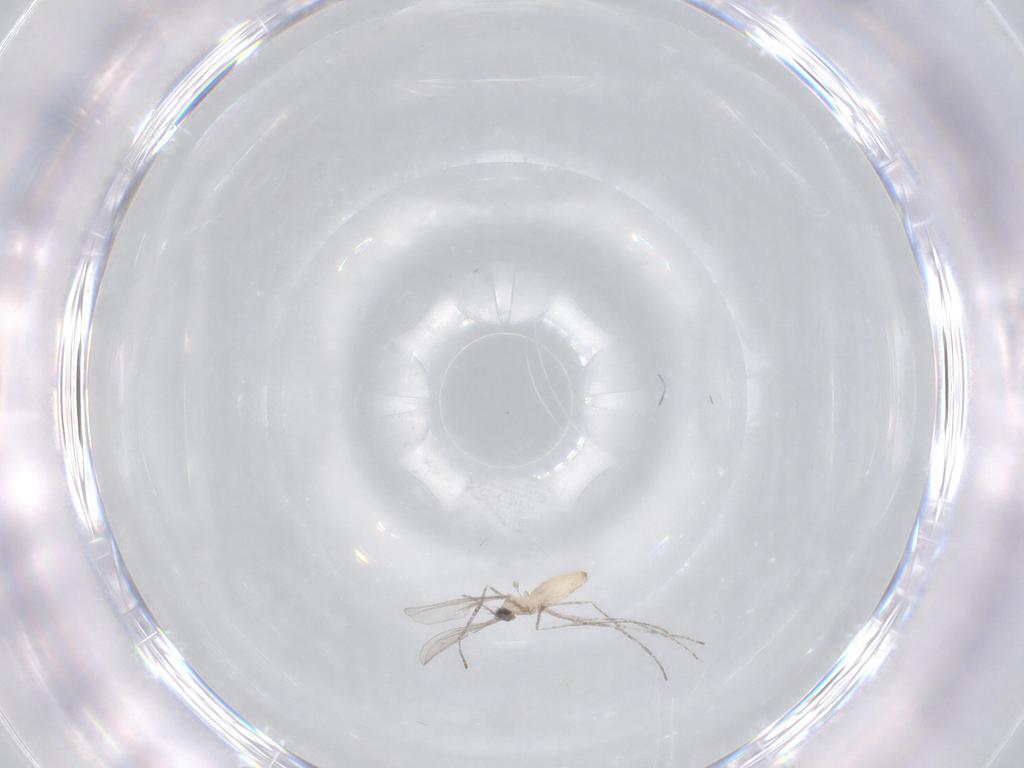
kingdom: Animalia
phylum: Arthropoda
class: Insecta
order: Diptera
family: Cecidomyiidae
